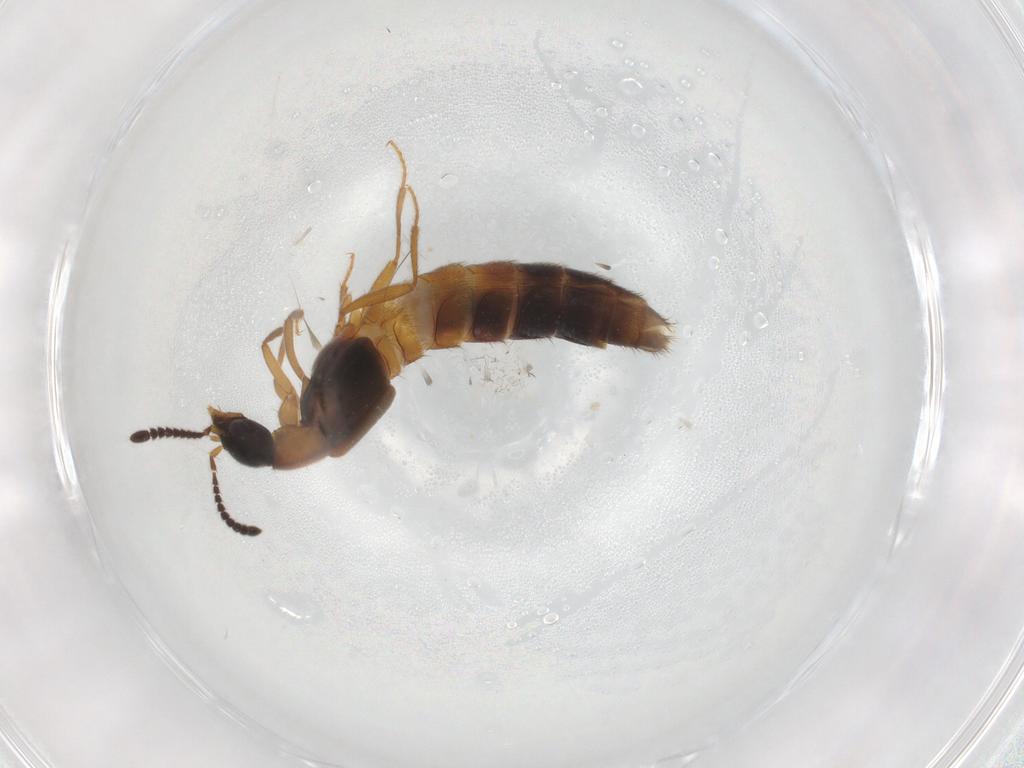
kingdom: Animalia
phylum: Arthropoda
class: Insecta
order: Coleoptera
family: Staphylinidae
